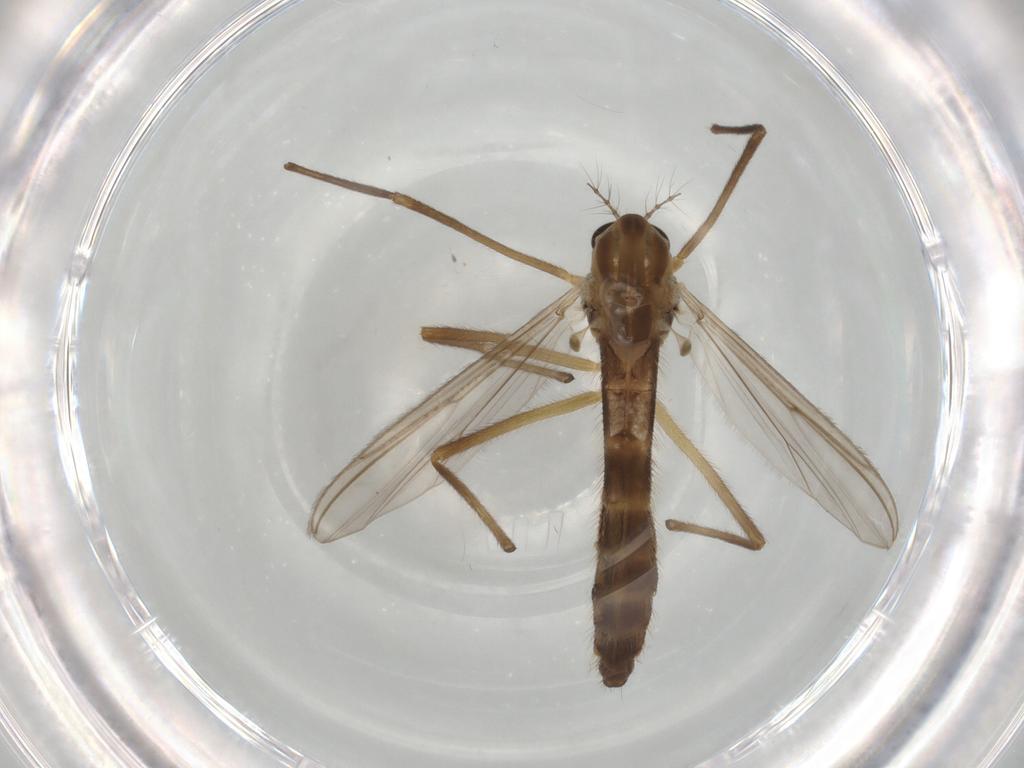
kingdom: Animalia
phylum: Arthropoda
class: Insecta
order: Diptera
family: Chironomidae
